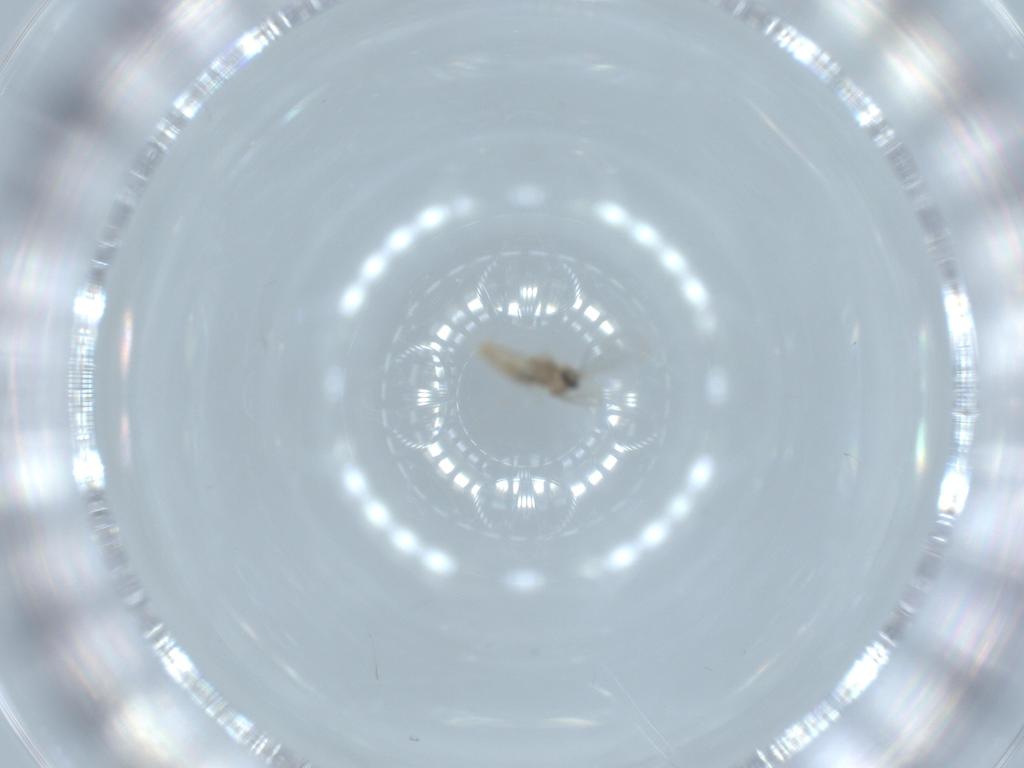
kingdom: Animalia
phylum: Arthropoda
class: Insecta
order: Diptera
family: Cecidomyiidae
